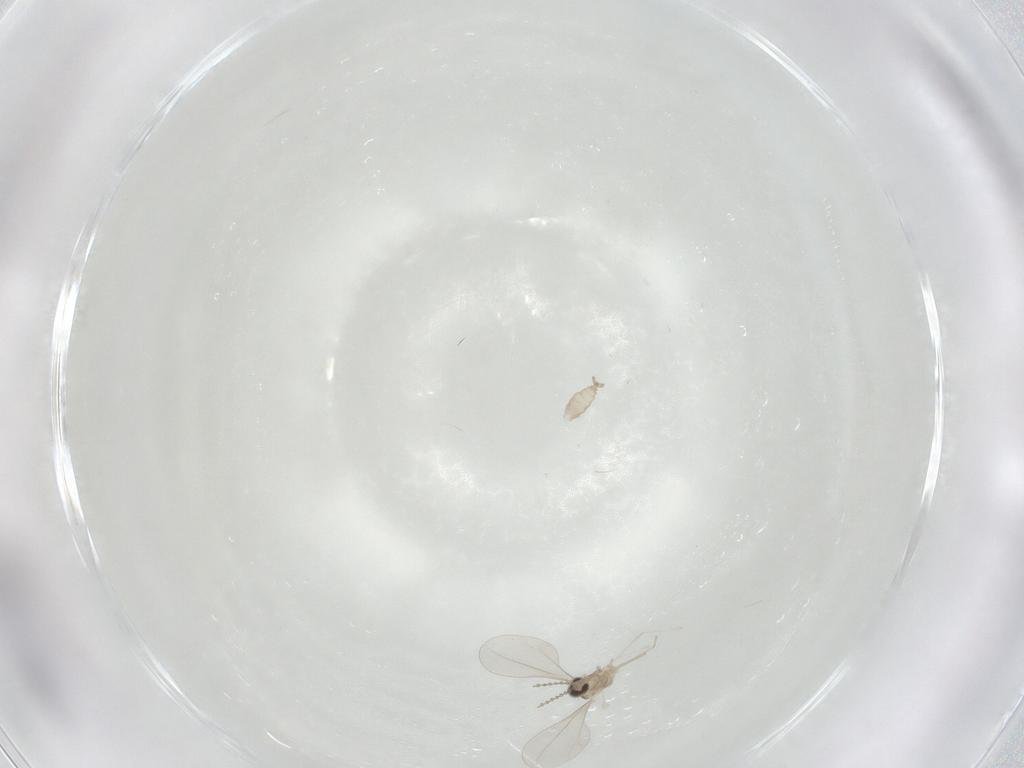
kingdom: Animalia
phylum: Arthropoda
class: Insecta
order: Diptera
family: Cecidomyiidae
